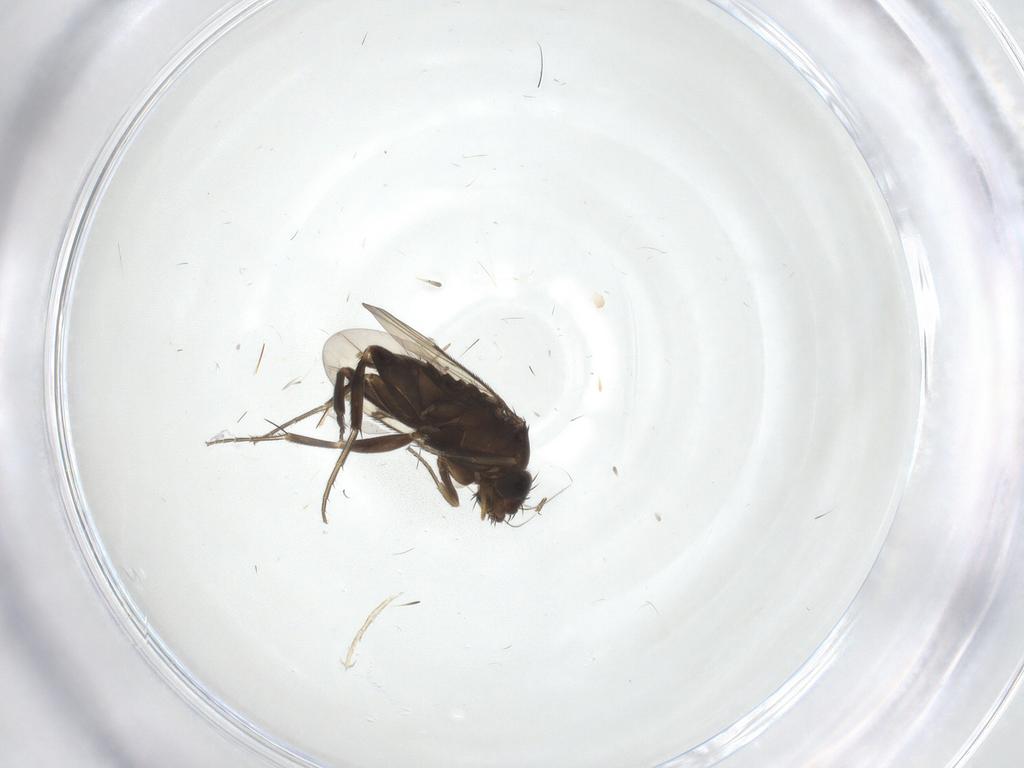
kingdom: Animalia
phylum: Arthropoda
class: Insecta
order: Diptera
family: Phoridae
